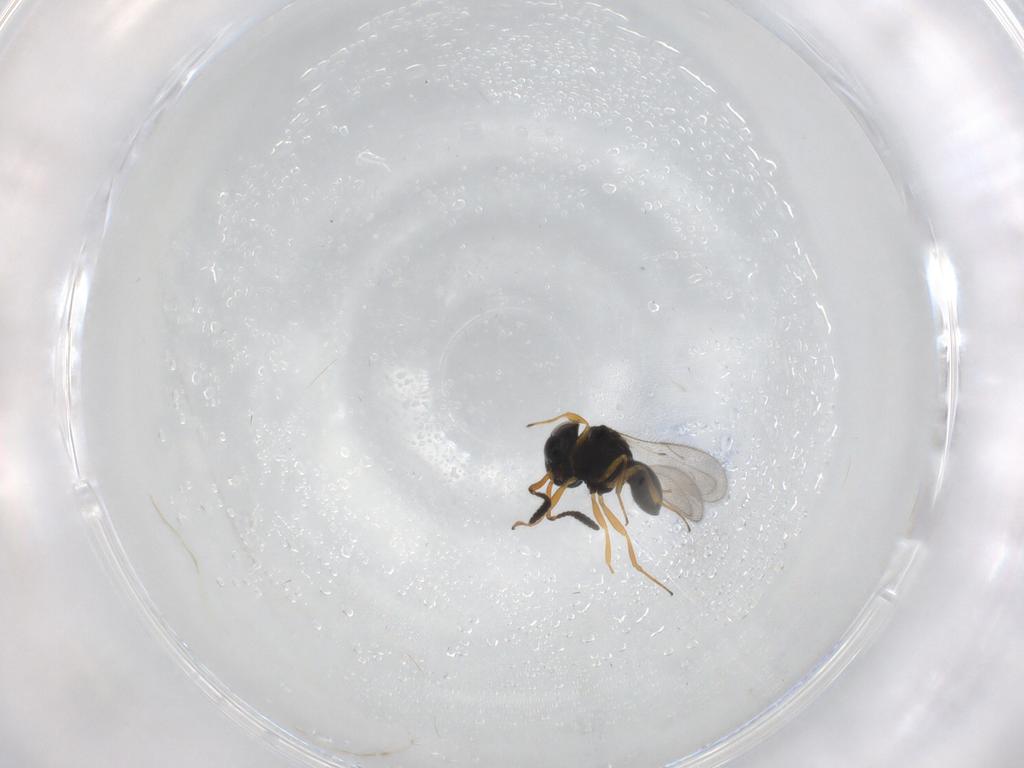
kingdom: Animalia
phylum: Arthropoda
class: Insecta
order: Hymenoptera
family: Scelionidae
